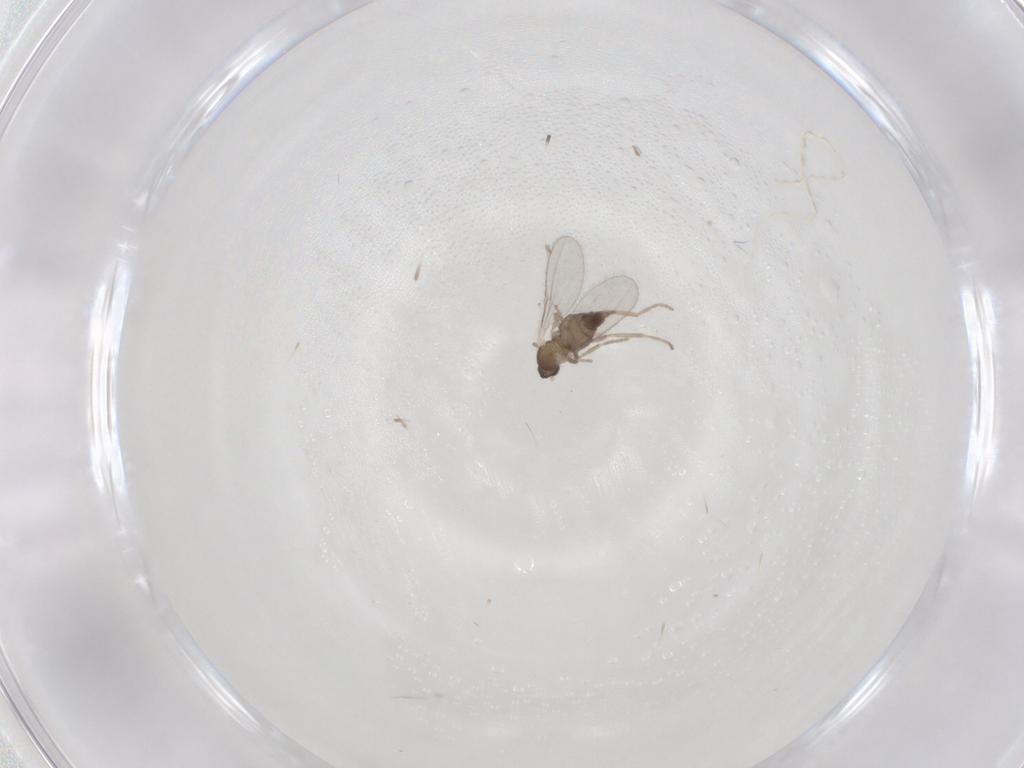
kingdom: Animalia
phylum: Arthropoda
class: Insecta
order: Diptera
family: Cecidomyiidae
